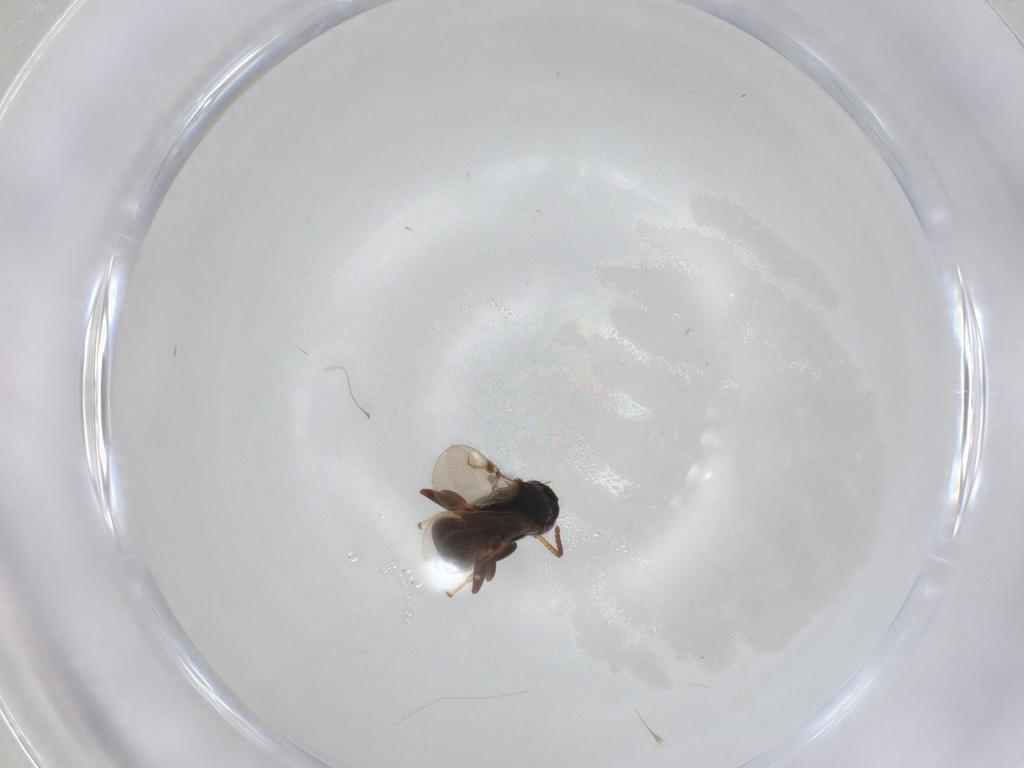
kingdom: Animalia
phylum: Arthropoda
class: Insecta
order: Hymenoptera
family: Bethylidae
